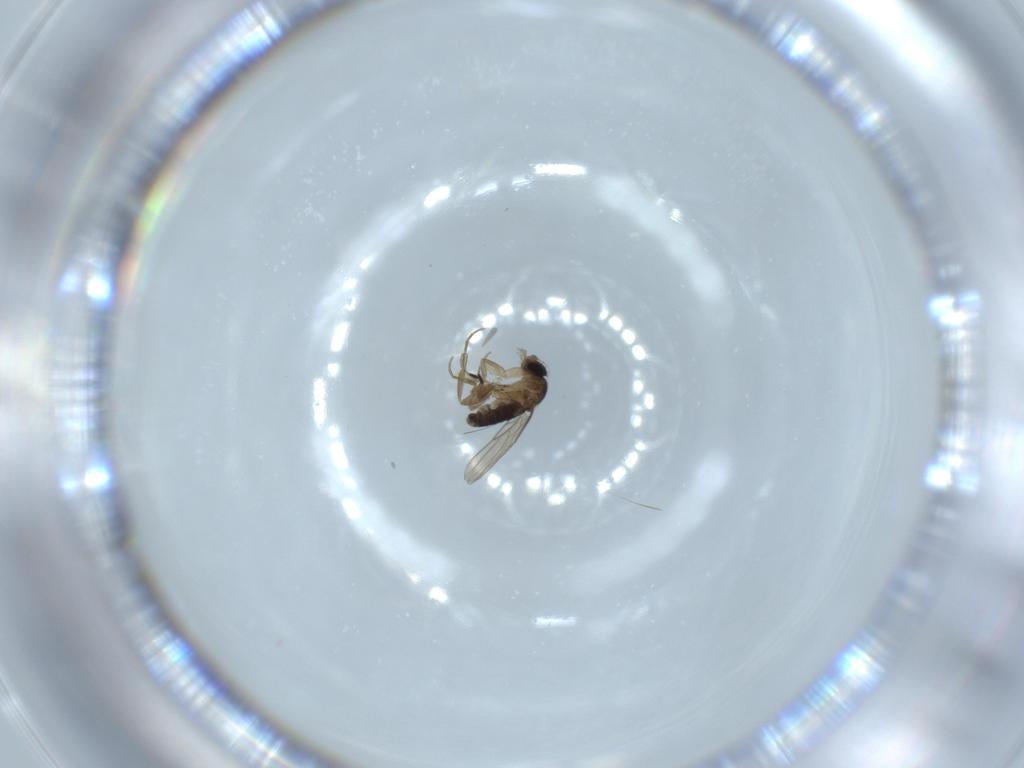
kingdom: Animalia
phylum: Arthropoda
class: Insecta
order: Diptera
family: Phoridae
